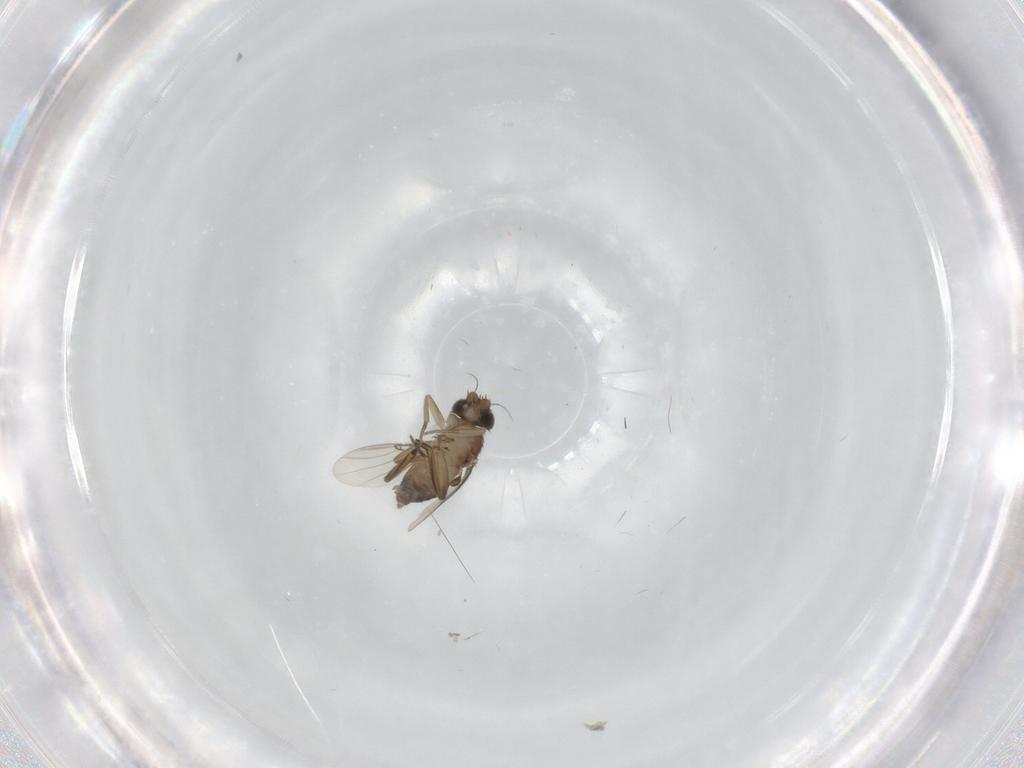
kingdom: Animalia
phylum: Arthropoda
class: Insecta
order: Diptera
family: Phoridae
